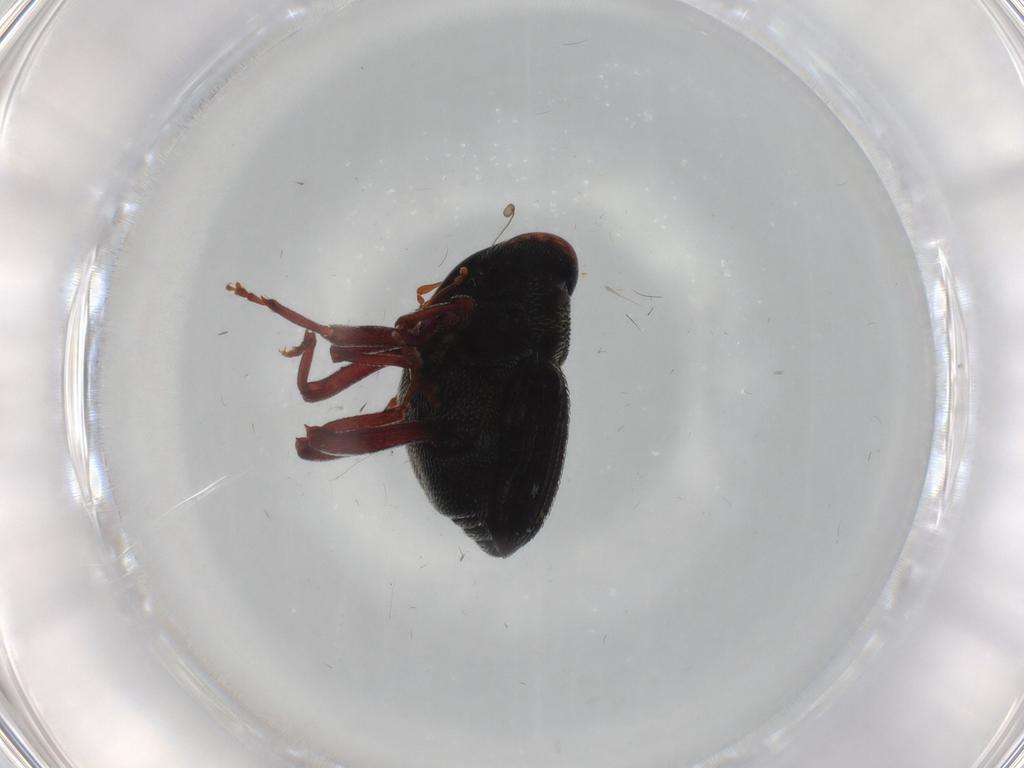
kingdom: Animalia
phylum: Arthropoda
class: Insecta
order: Coleoptera
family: Curculionidae
